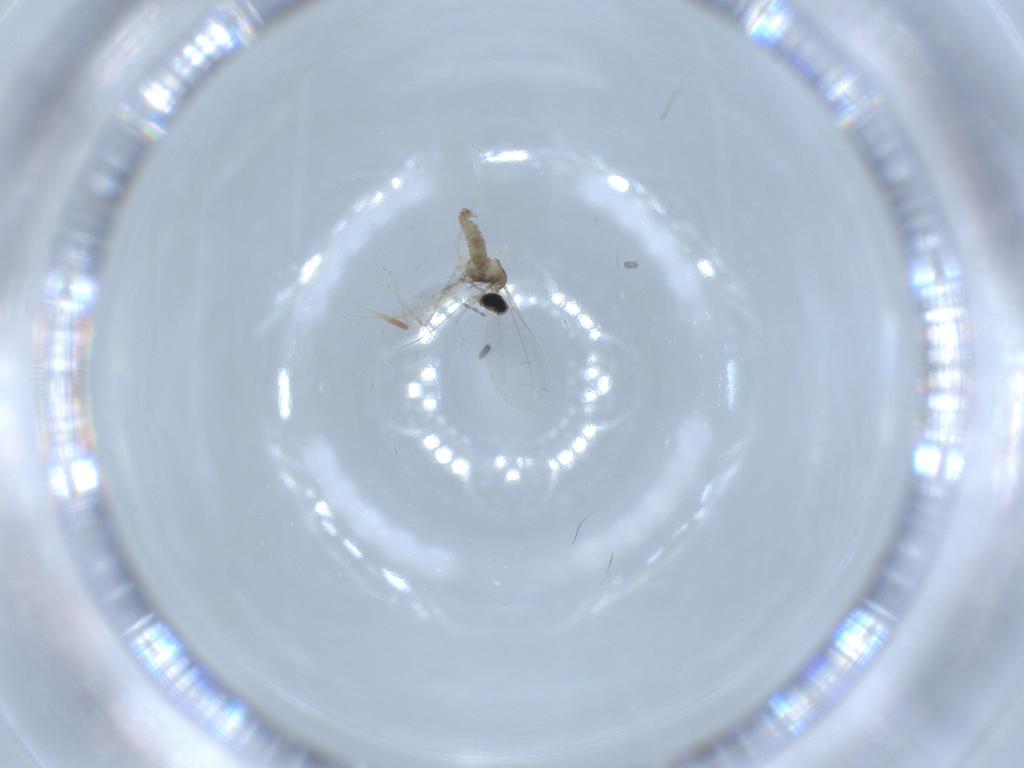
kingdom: Animalia
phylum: Arthropoda
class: Insecta
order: Diptera
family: Cecidomyiidae
